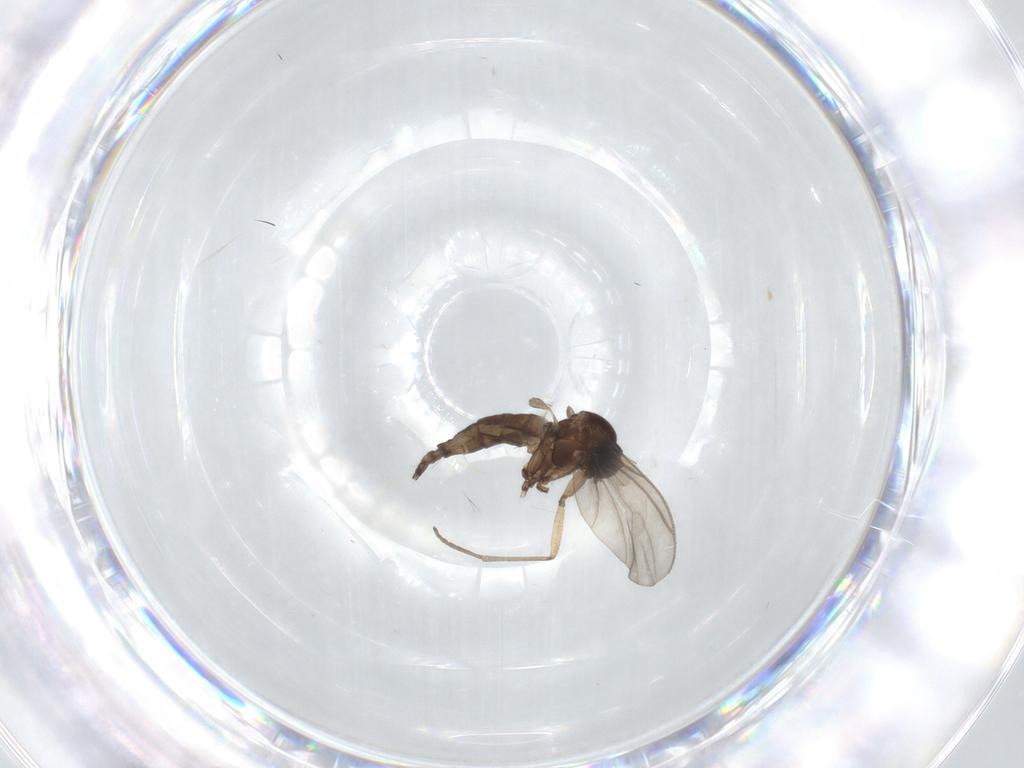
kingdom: Animalia
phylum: Arthropoda
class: Insecta
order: Diptera
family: Sciaridae
